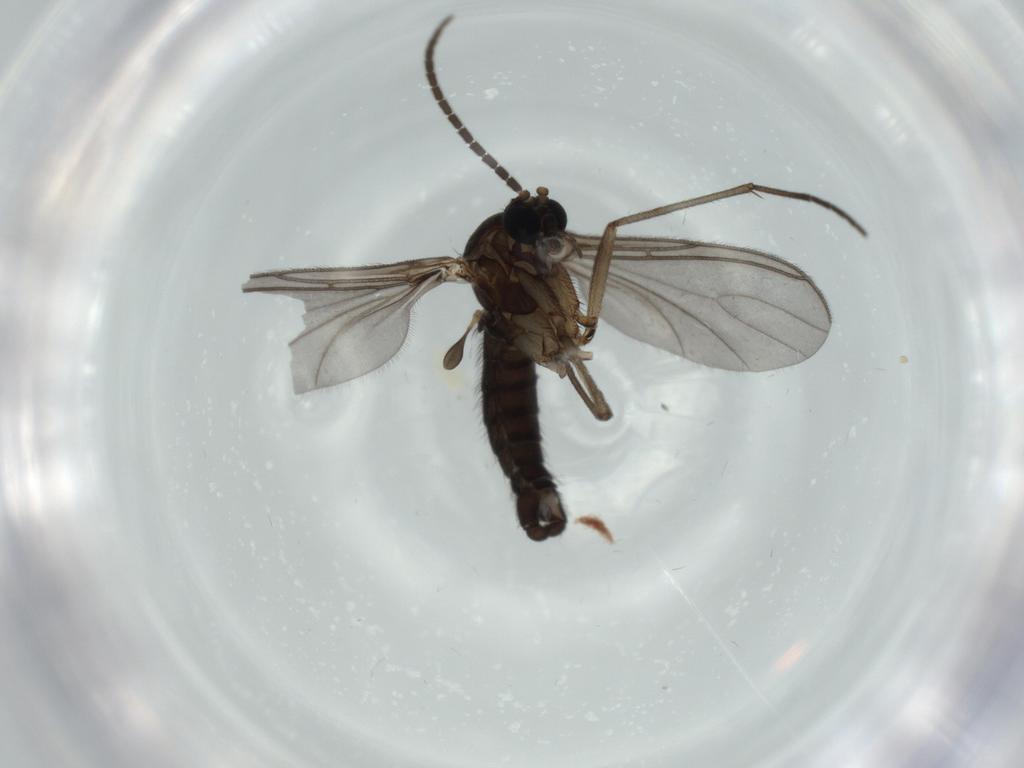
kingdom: Animalia
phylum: Arthropoda
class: Insecta
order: Diptera
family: Sciaridae
